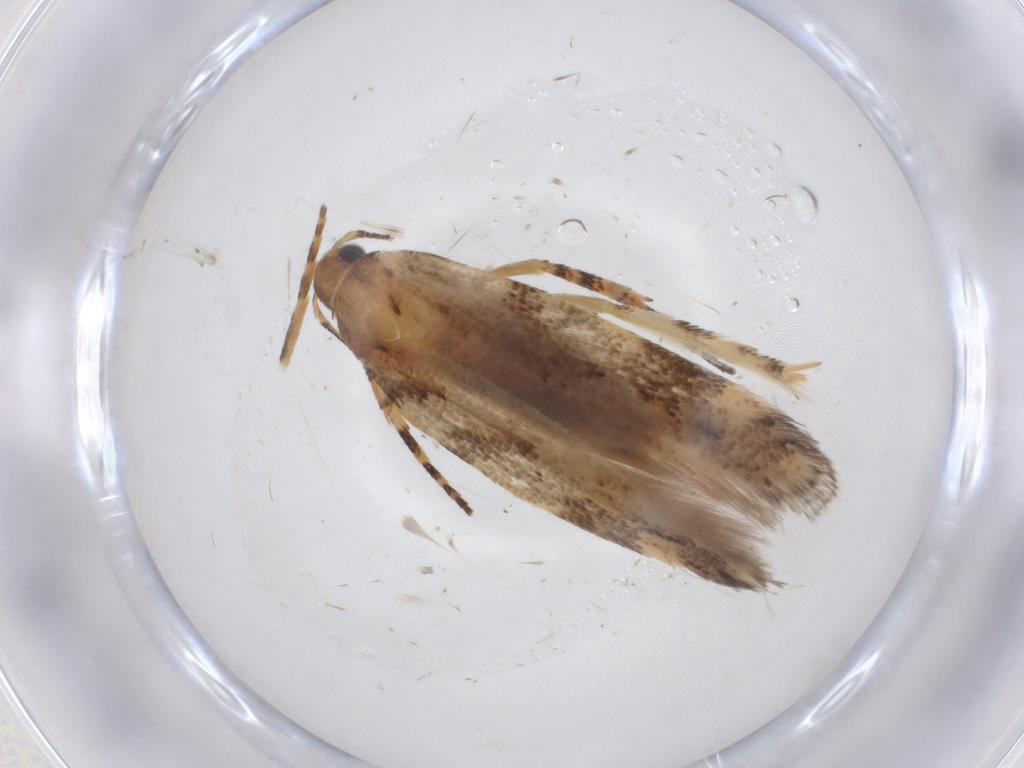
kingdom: Animalia
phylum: Arthropoda
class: Insecta
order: Lepidoptera
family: Gelechiidae
